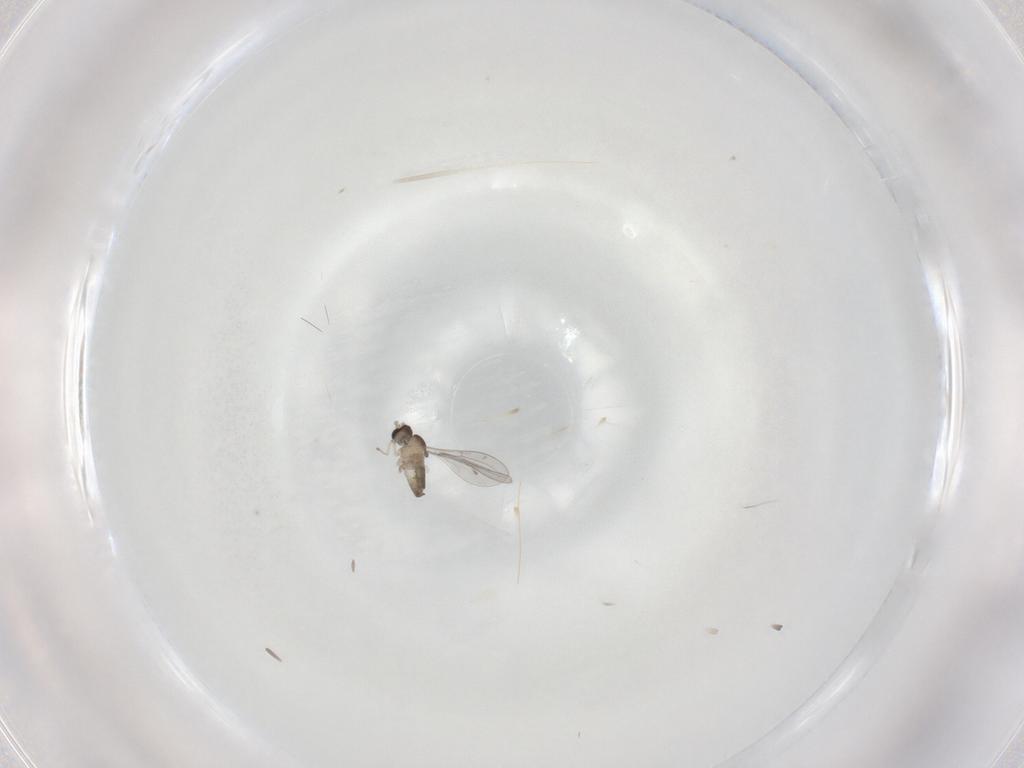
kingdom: Animalia
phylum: Arthropoda
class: Insecta
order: Diptera
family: Cecidomyiidae
